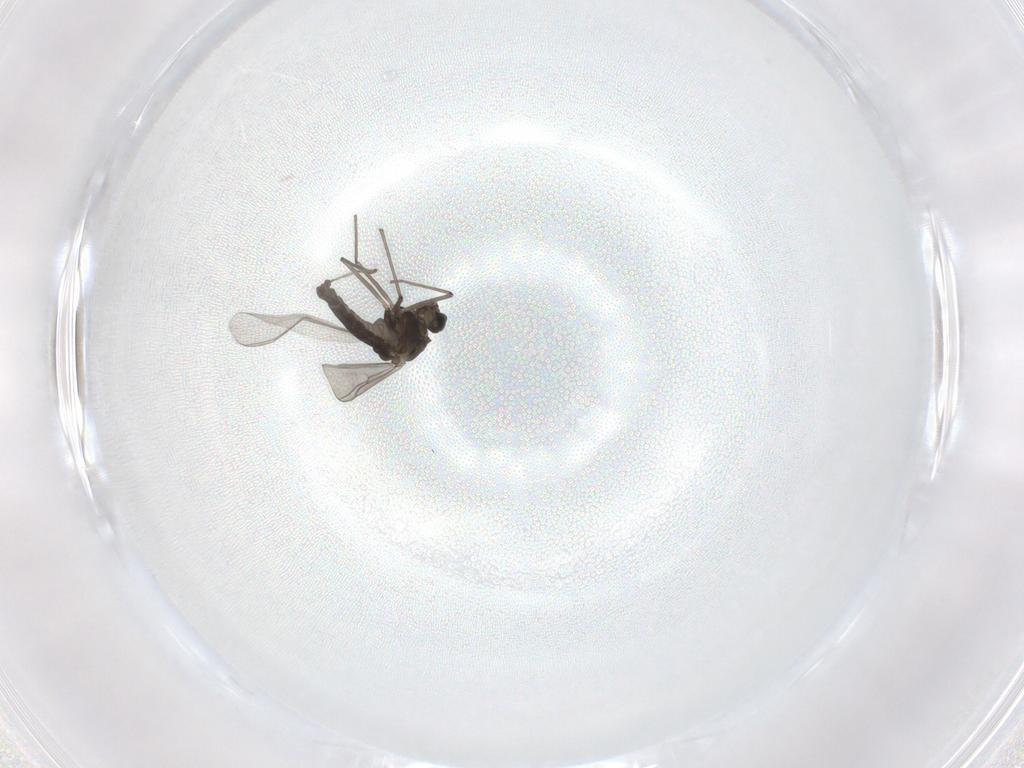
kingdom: Animalia
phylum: Arthropoda
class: Insecta
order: Diptera
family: Chironomidae
